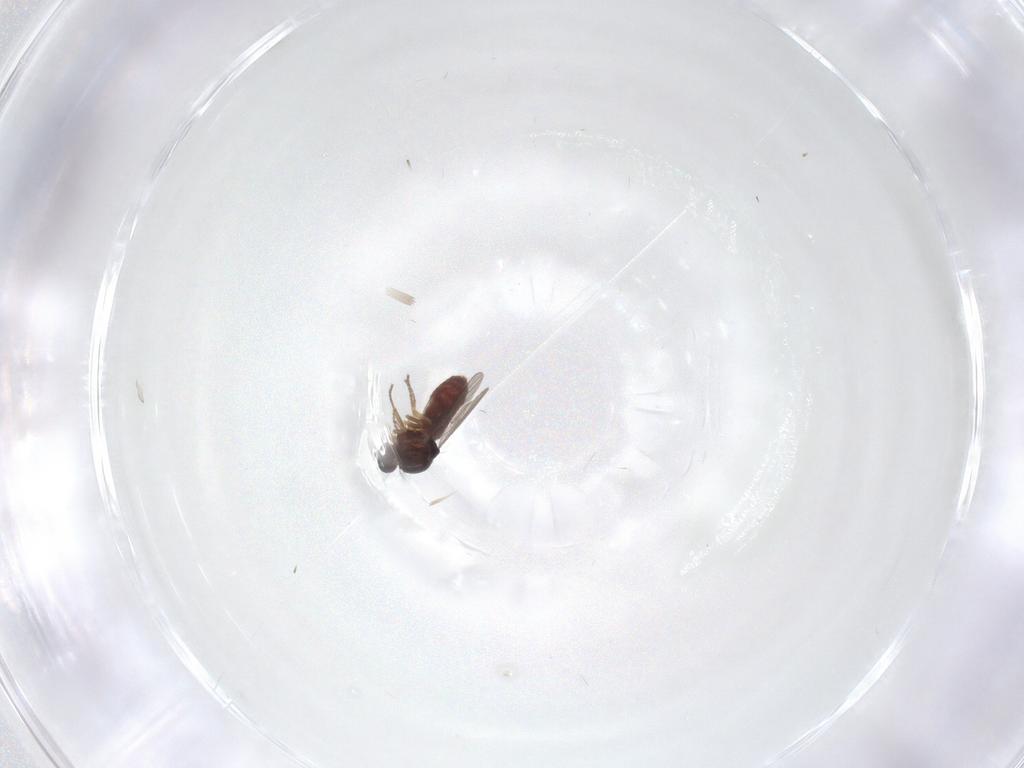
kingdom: Animalia
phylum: Arthropoda
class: Insecta
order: Diptera
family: Ceratopogonidae
